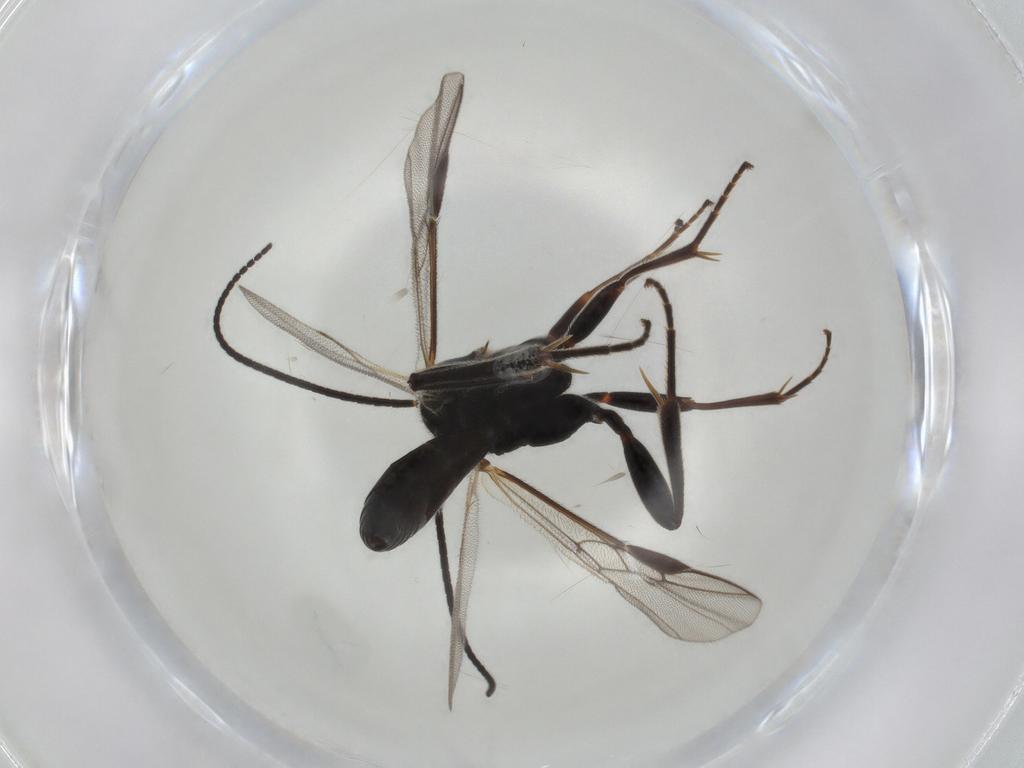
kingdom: Animalia
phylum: Arthropoda
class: Insecta
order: Hymenoptera
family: Braconidae
